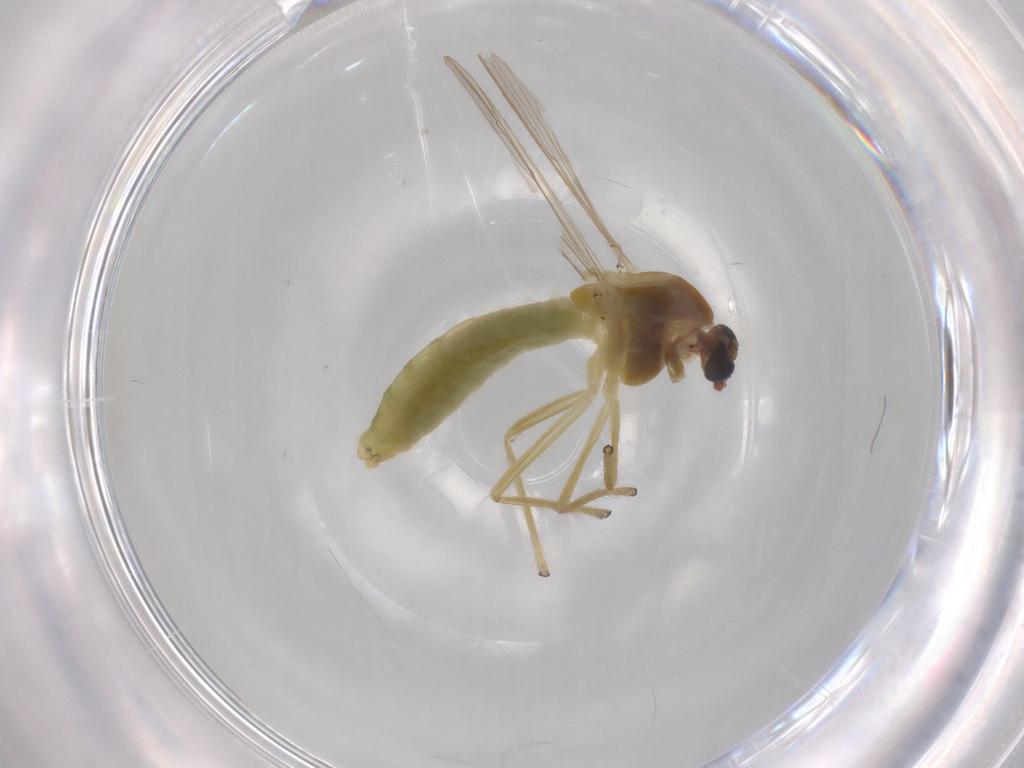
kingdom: Animalia
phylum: Arthropoda
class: Insecta
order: Diptera
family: Chironomidae
